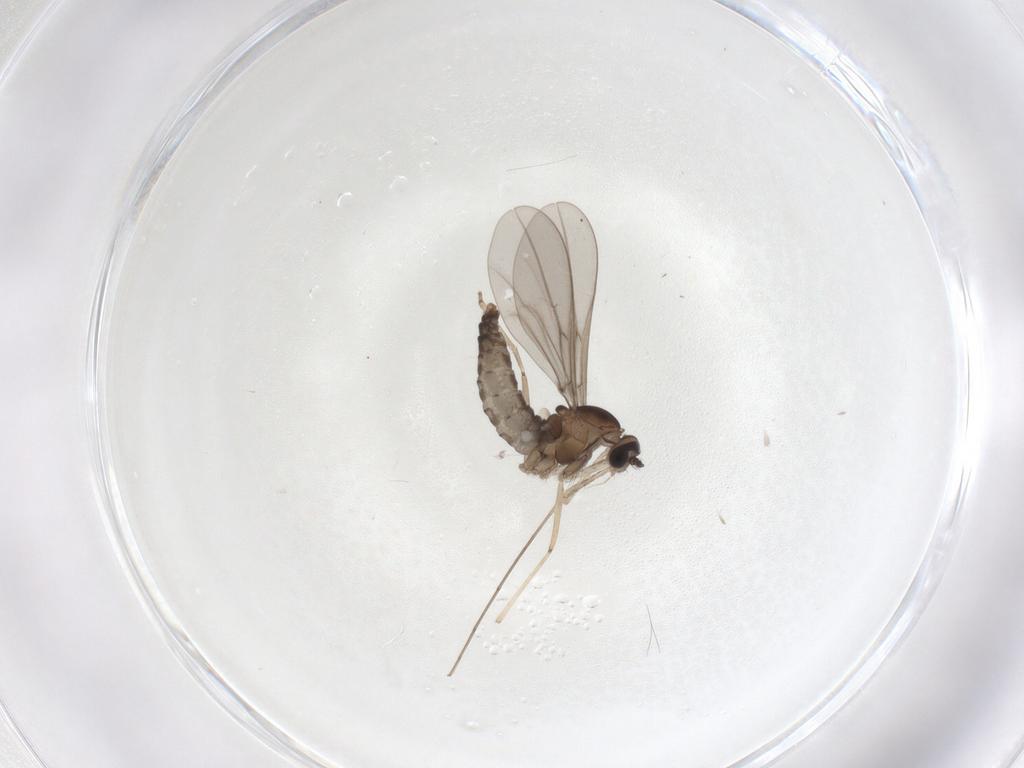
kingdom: Animalia
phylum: Arthropoda
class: Insecta
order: Diptera
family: Cecidomyiidae
